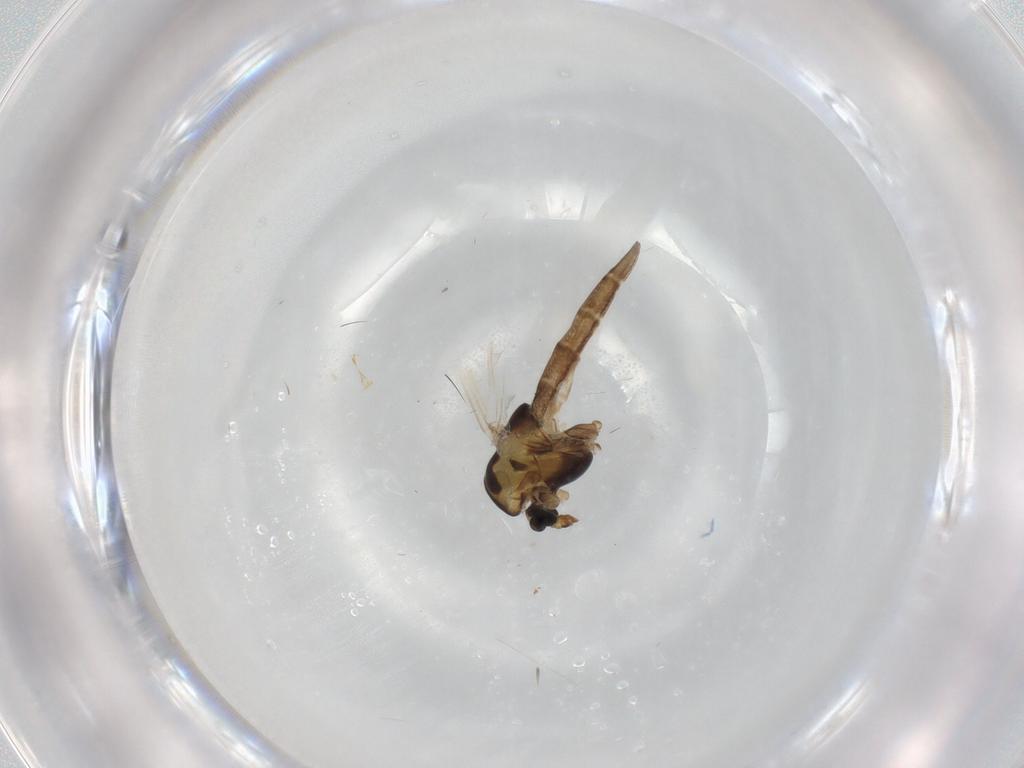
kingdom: Animalia
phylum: Arthropoda
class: Insecta
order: Diptera
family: Chironomidae
